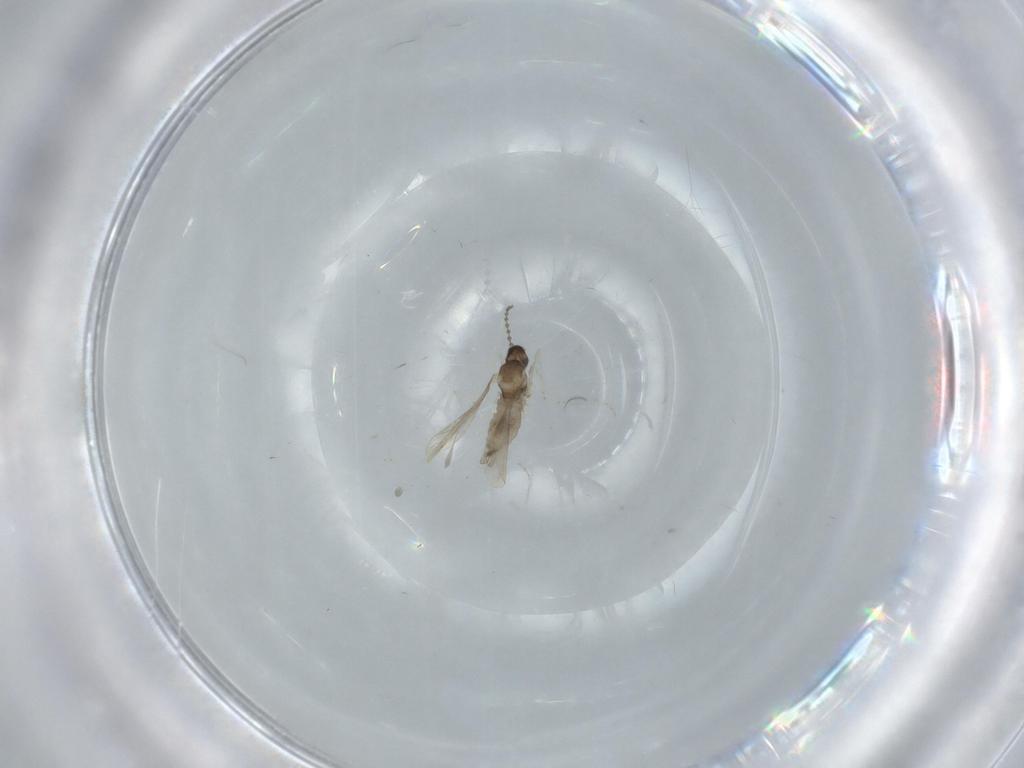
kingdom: Animalia
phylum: Arthropoda
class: Insecta
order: Diptera
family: Cecidomyiidae
